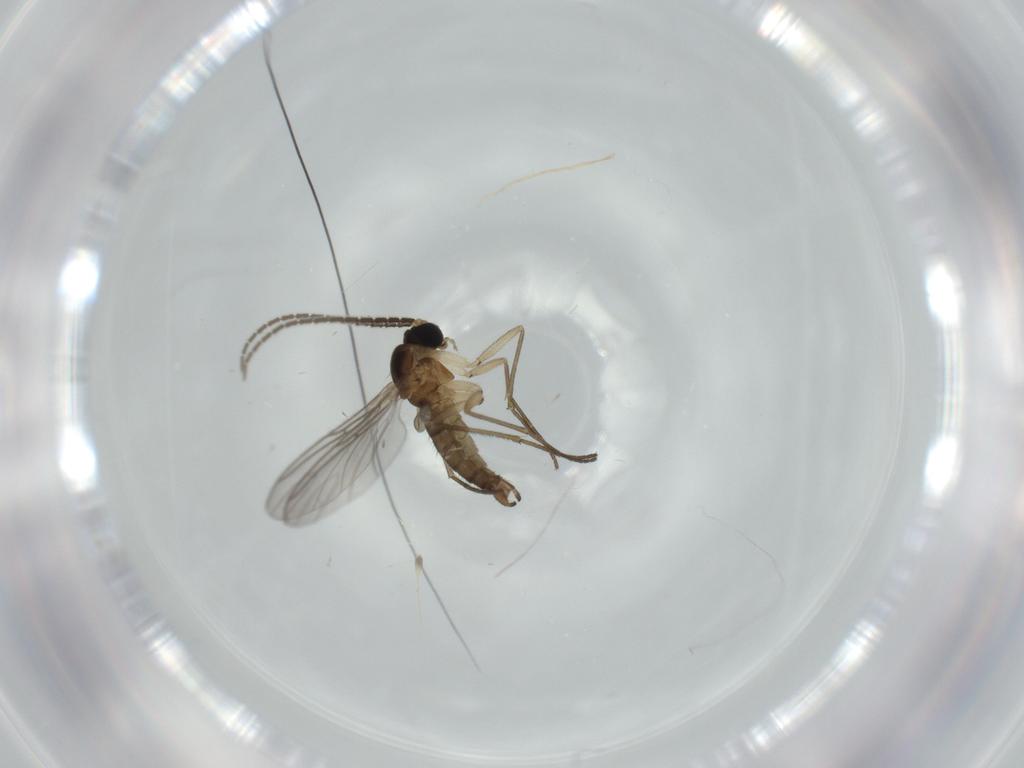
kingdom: Animalia
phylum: Arthropoda
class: Insecta
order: Diptera
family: Sciaridae
